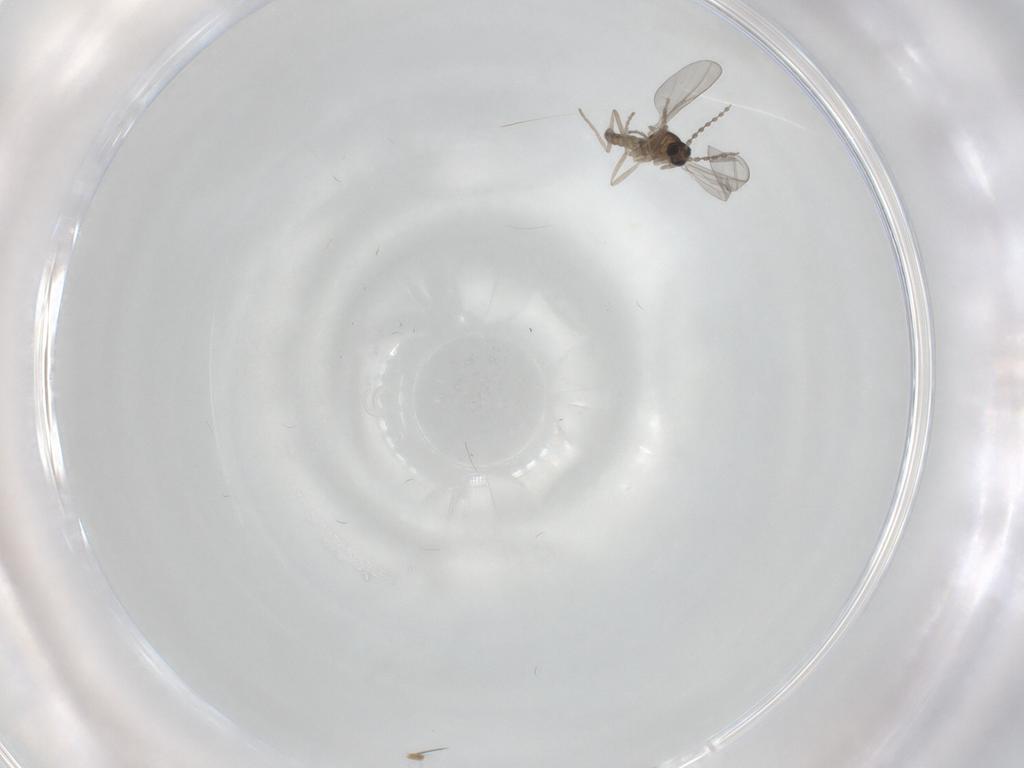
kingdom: Animalia
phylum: Arthropoda
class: Insecta
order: Diptera
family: Cecidomyiidae
